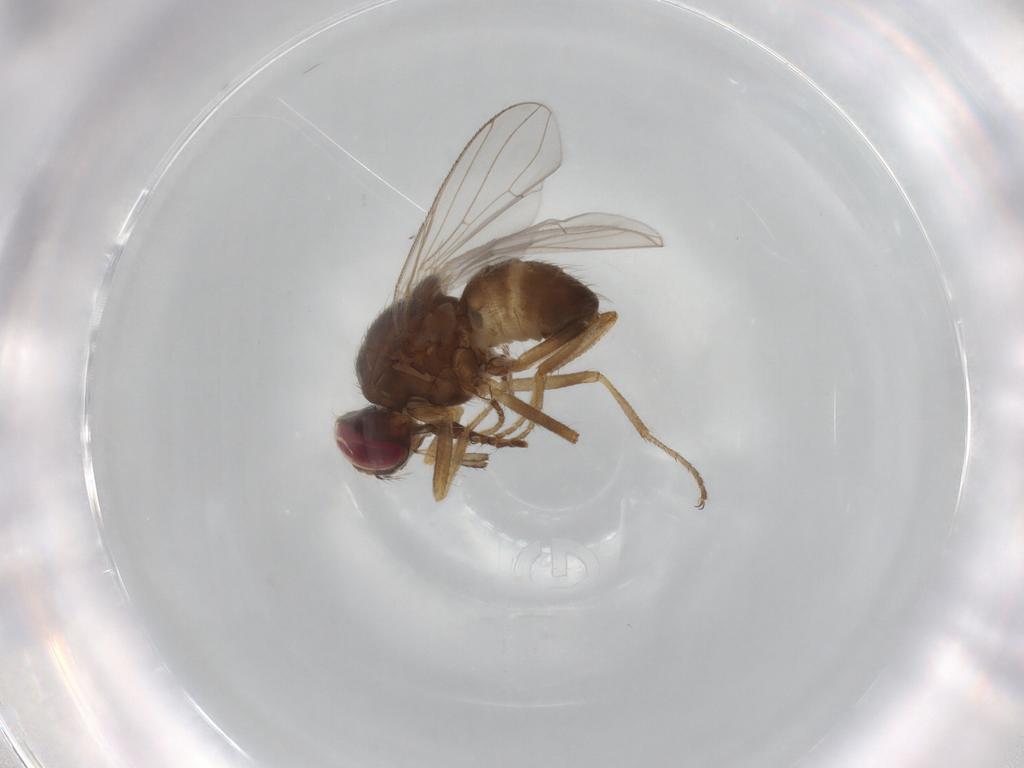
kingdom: Animalia
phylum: Arthropoda
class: Insecta
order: Diptera
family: Muscidae
